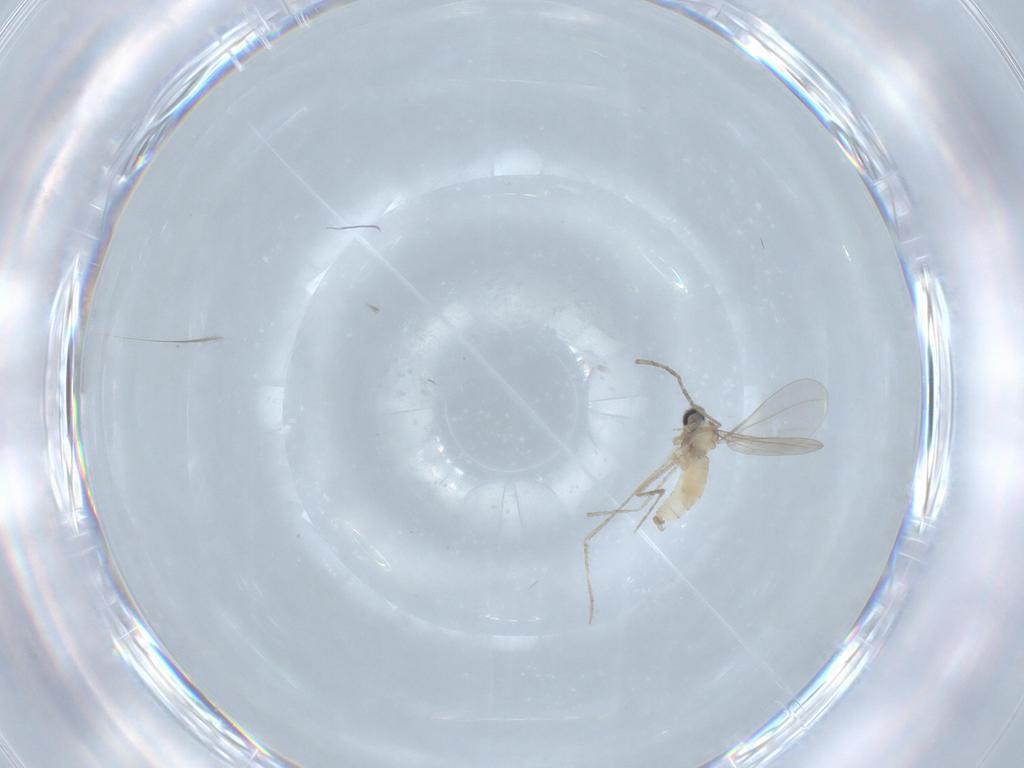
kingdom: Animalia
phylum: Arthropoda
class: Insecta
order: Diptera
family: Cecidomyiidae
